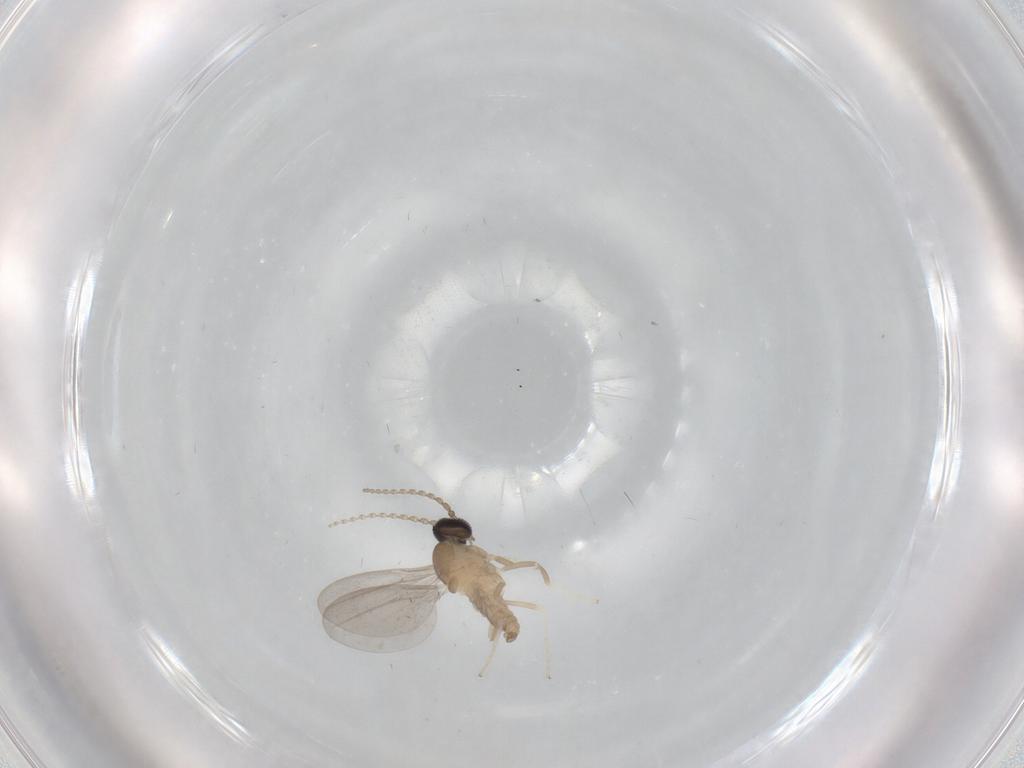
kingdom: Animalia
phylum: Arthropoda
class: Insecta
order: Diptera
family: Cecidomyiidae
